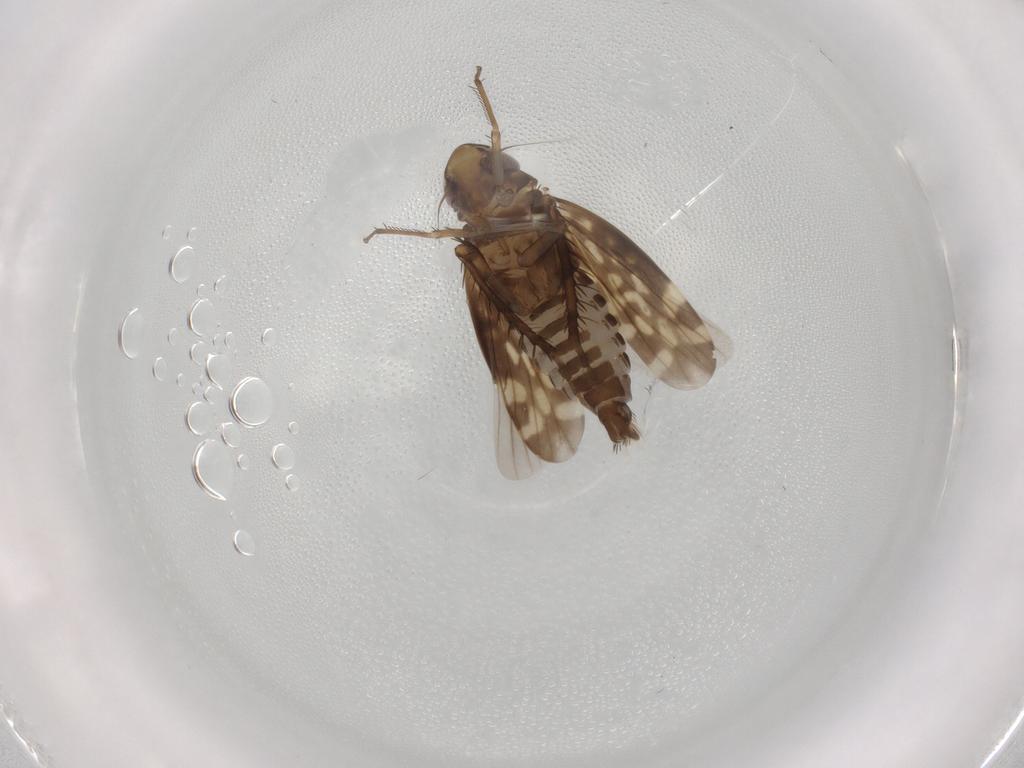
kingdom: Animalia
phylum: Arthropoda
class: Insecta
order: Hemiptera
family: Cicadellidae
